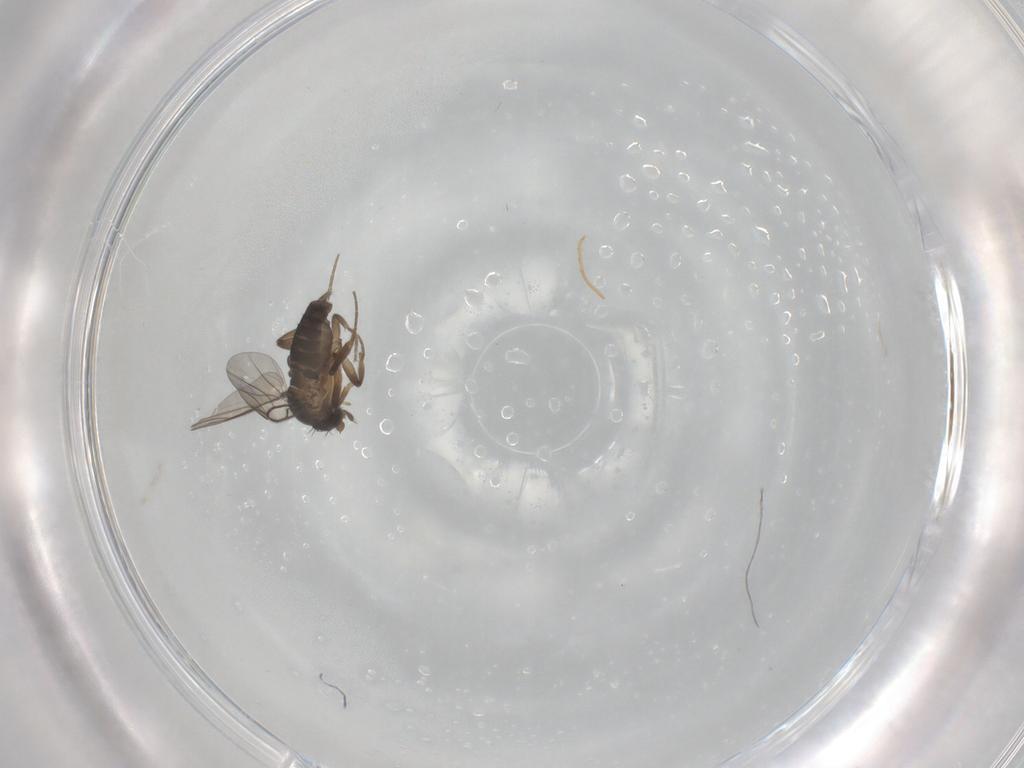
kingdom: Animalia
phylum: Arthropoda
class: Insecta
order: Diptera
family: Phoridae
